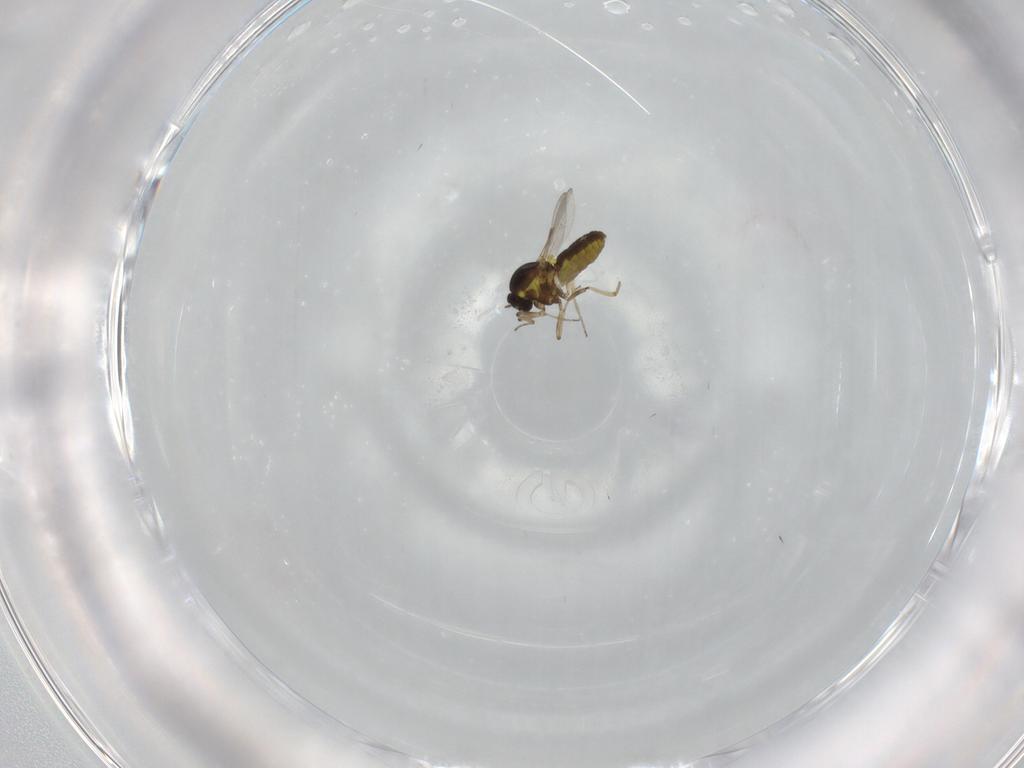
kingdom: Animalia
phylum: Arthropoda
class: Insecta
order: Diptera
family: Ceratopogonidae
